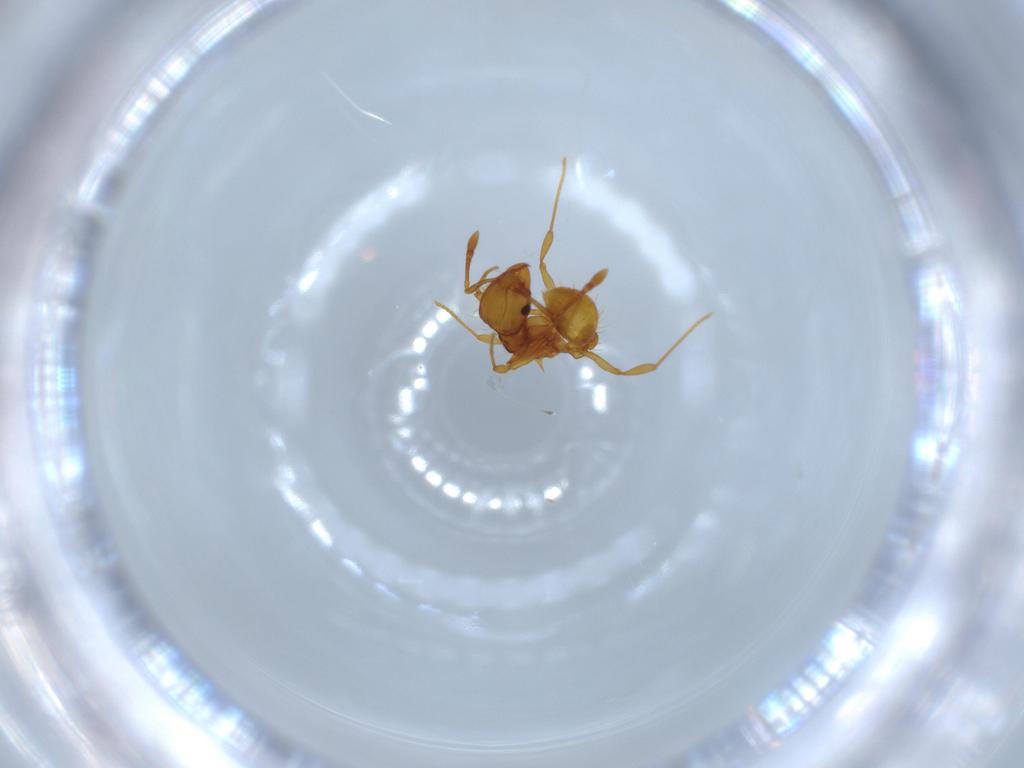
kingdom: Animalia
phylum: Arthropoda
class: Insecta
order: Hymenoptera
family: Formicidae
